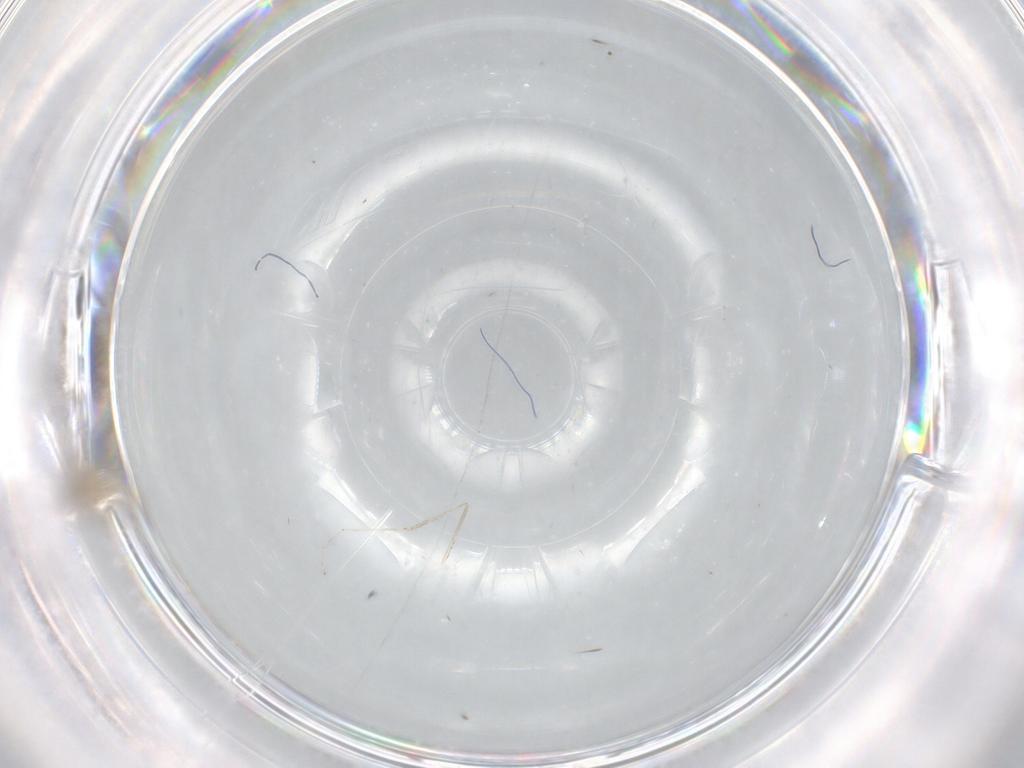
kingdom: Animalia
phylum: Arthropoda
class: Insecta
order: Diptera
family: Cecidomyiidae
